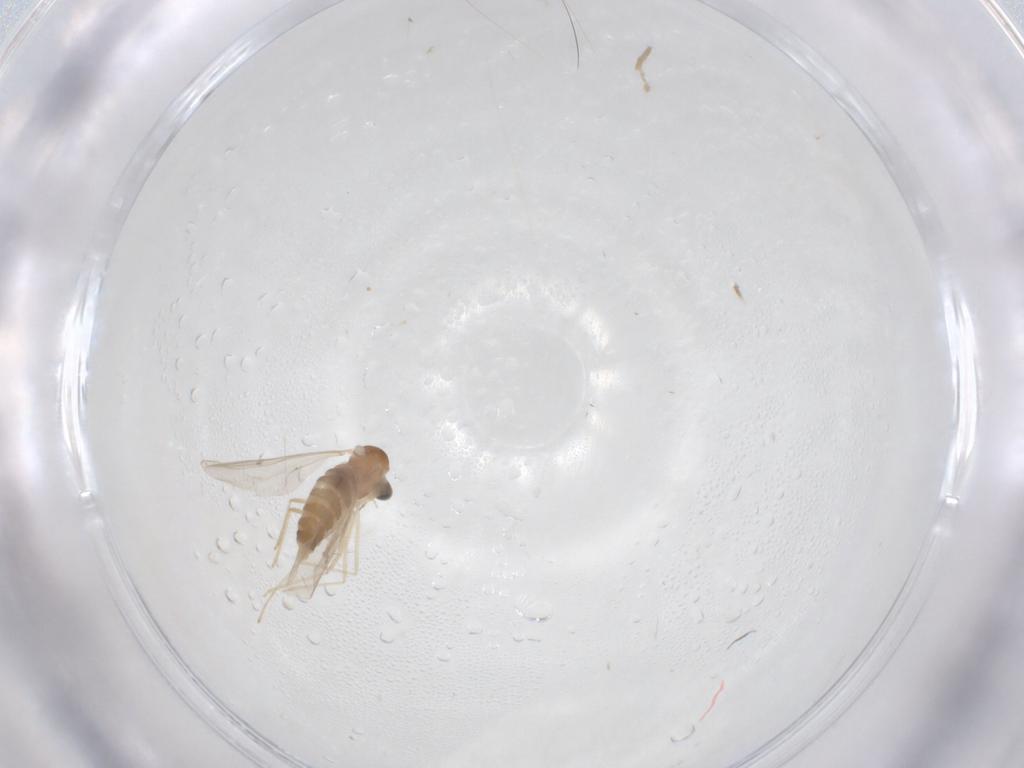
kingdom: Animalia
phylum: Arthropoda
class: Insecta
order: Diptera
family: Cecidomyiidae
